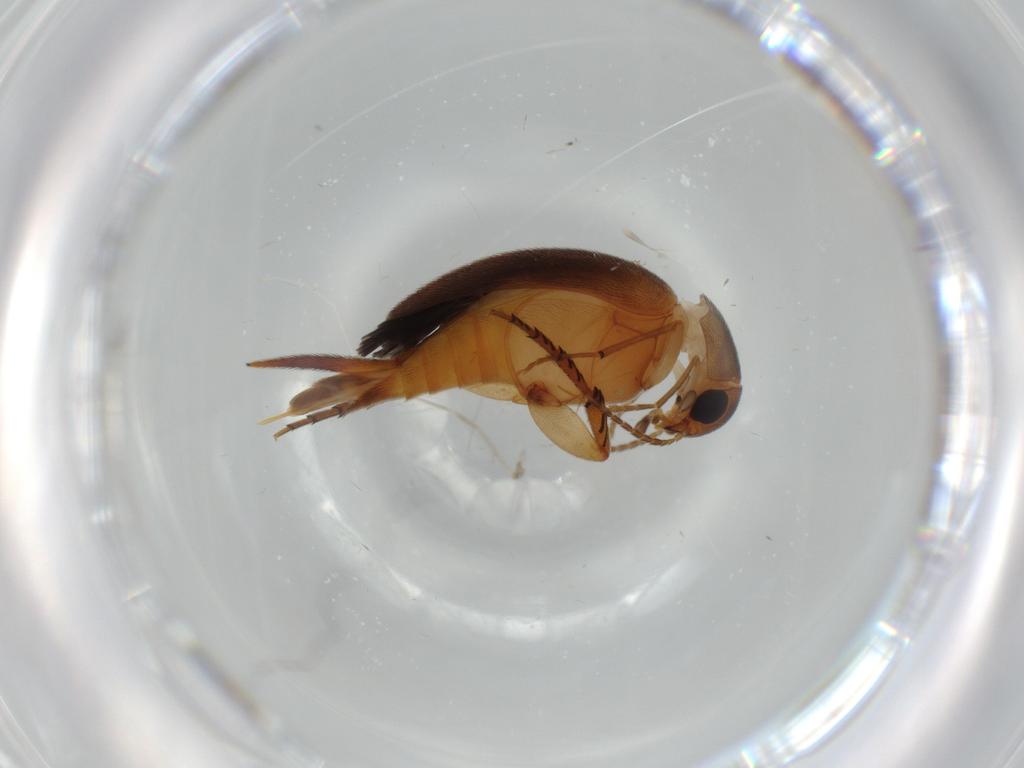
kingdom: Animalia
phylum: Arthropoda
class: Insecta
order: Coleoptera
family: Mordellidae
